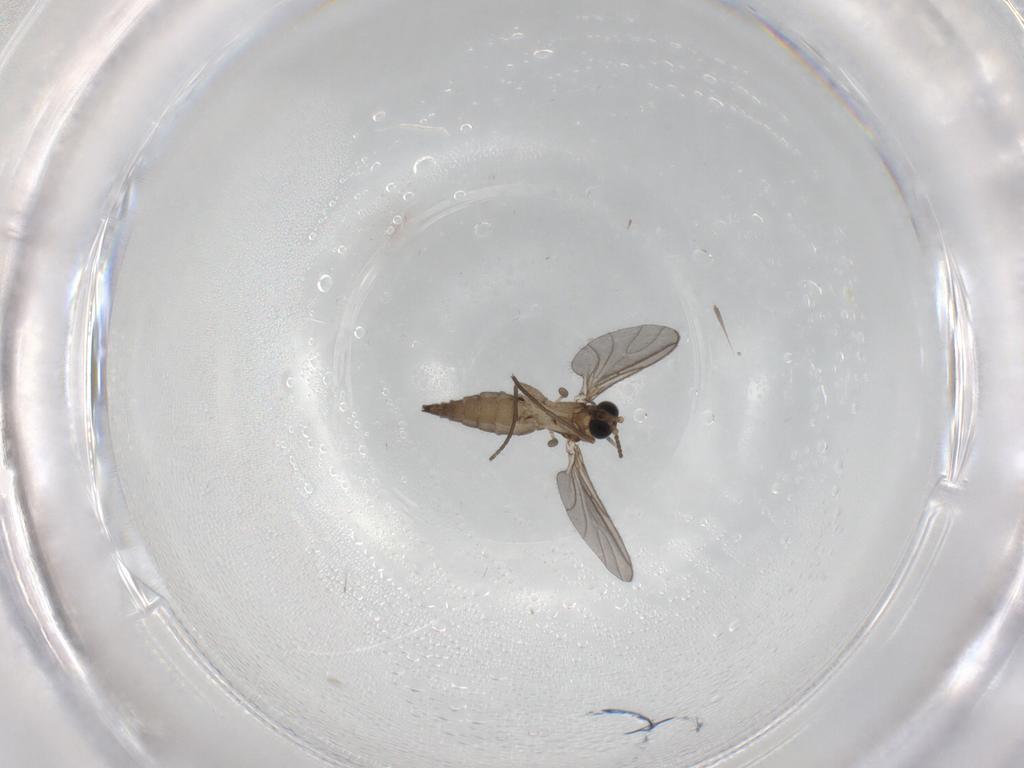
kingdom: Animalia
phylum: Arthropoda
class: Insecta
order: Diptera
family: Sciaridae
